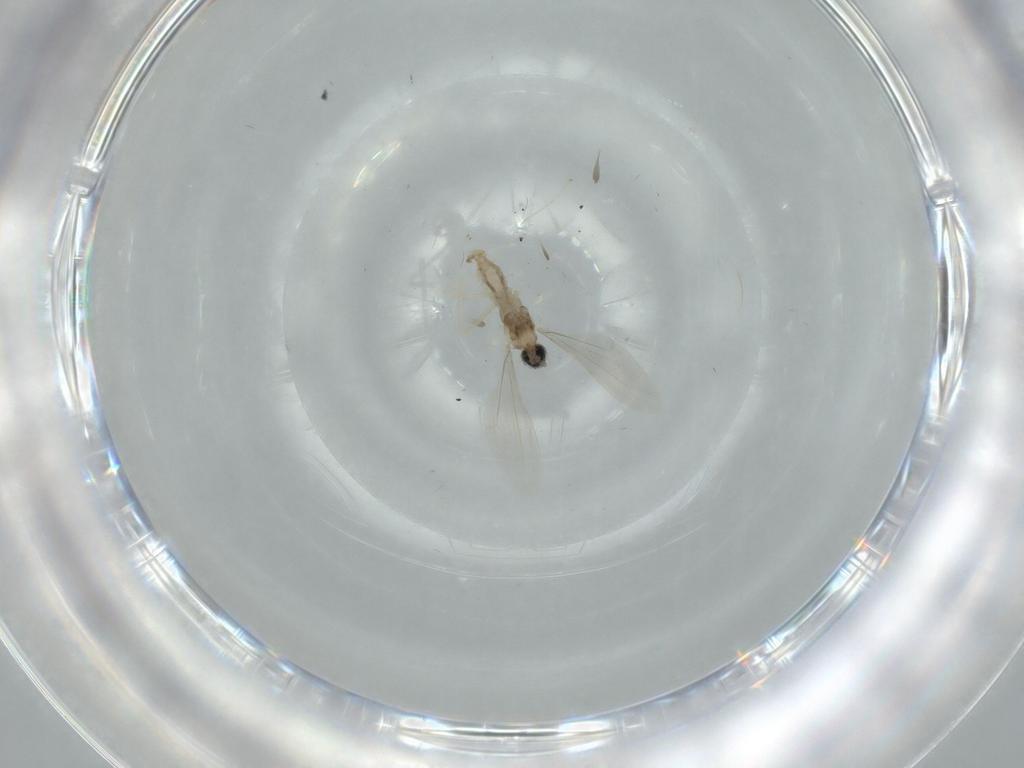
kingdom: Animalia
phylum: Arthropoda
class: Insecta
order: Diptera
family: Cecidomyiidae
